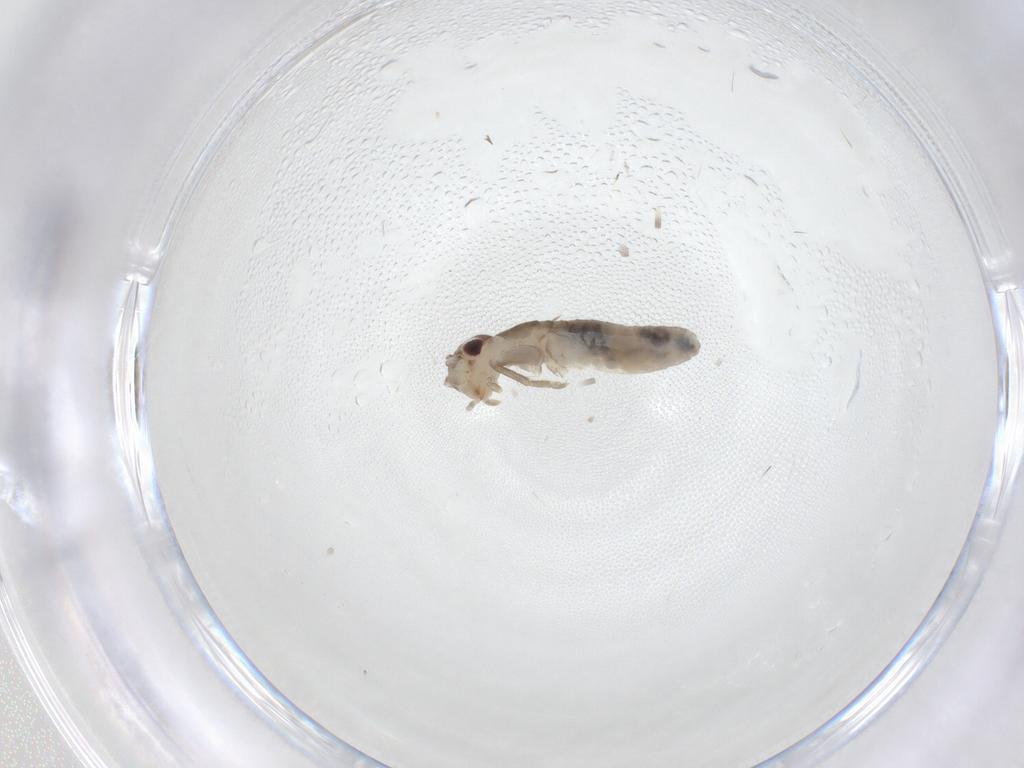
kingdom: Animalia
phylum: Arthropoda
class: Insecta
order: Orthoptera
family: Gryllidae
